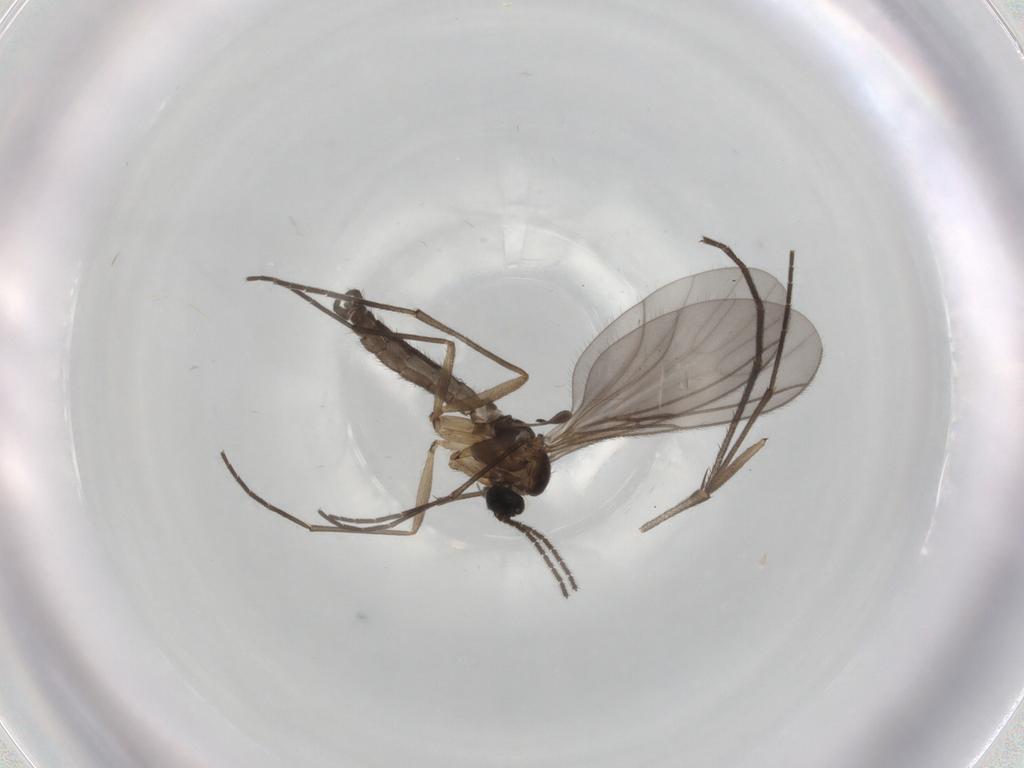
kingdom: Animalia
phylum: Arthropoda
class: Insecta
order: Diptera
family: Sciaridae
